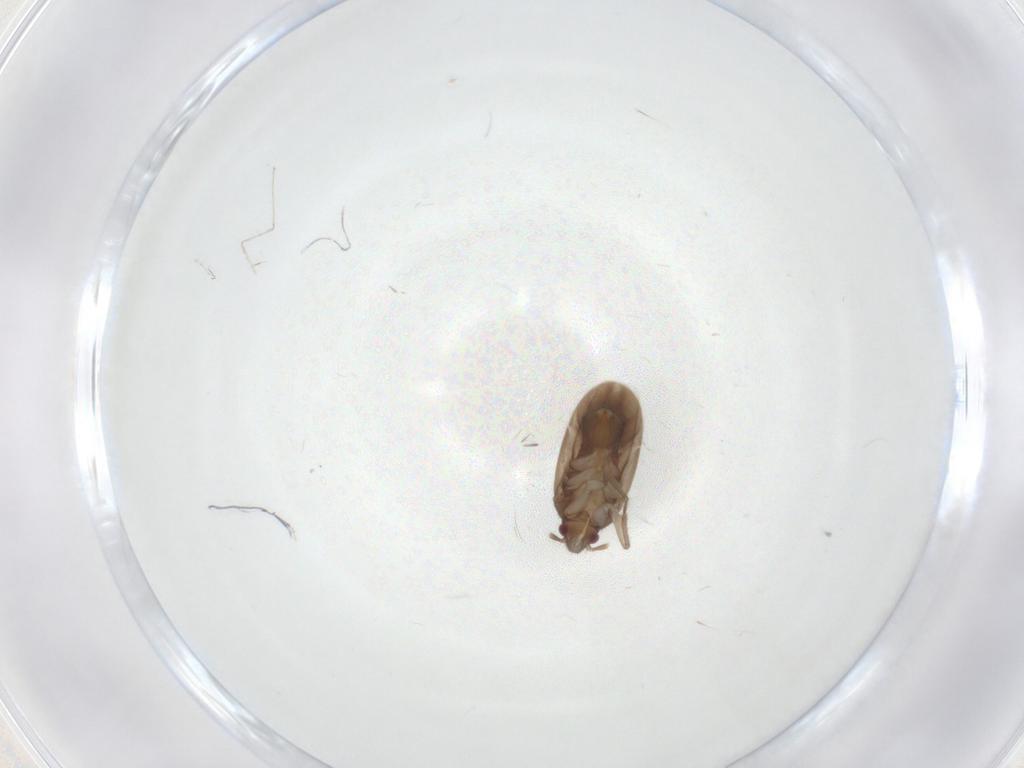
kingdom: Animalia
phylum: Arthropoda
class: Insecta
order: Hemiptera
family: Ceratocombidae
